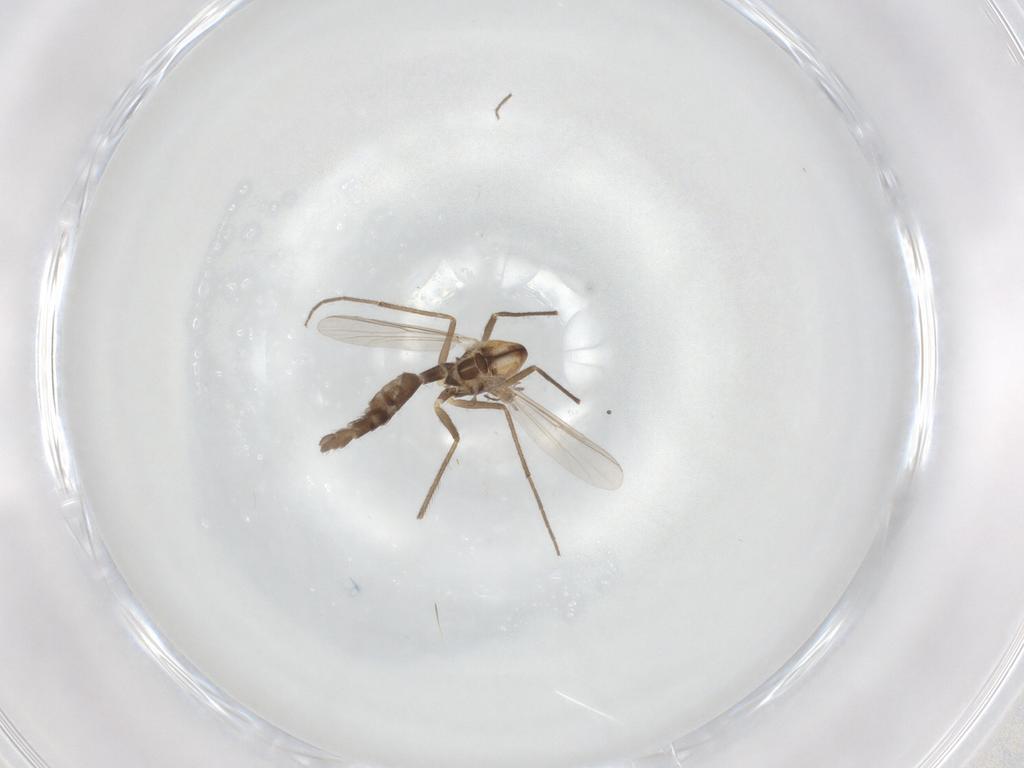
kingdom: Animalia
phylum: Arthropoda
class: Insecta
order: Diptera
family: Chironomidae
